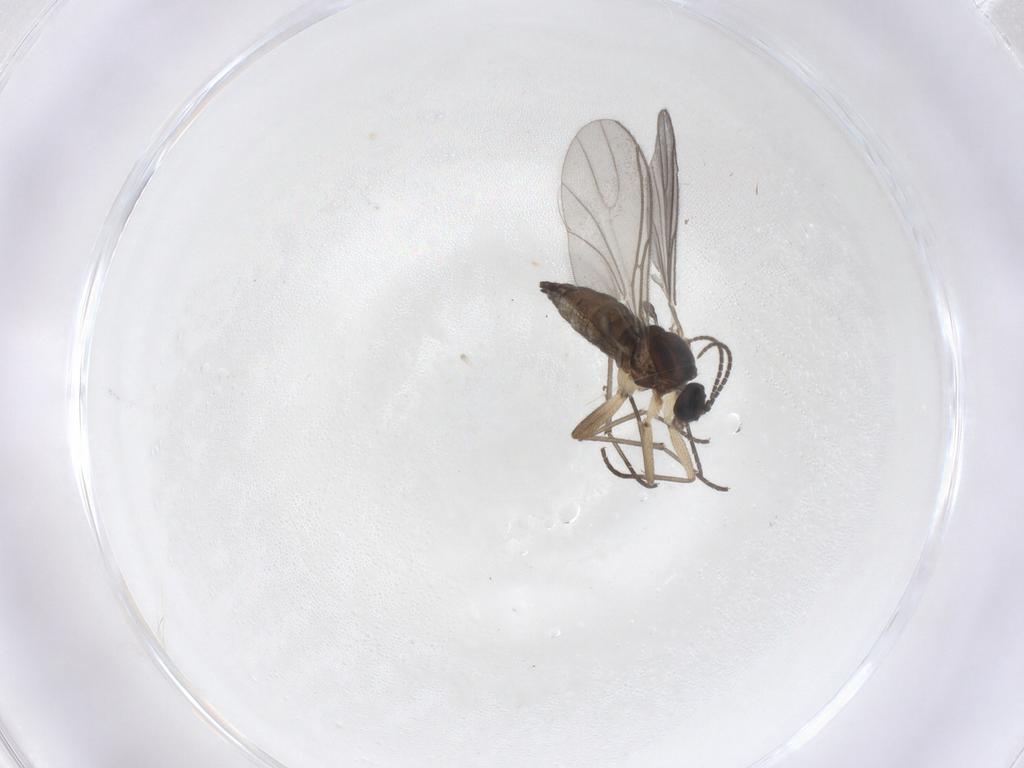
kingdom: Animalia
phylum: Arthropoda
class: Insecta
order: Diptera
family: Sciaridae
